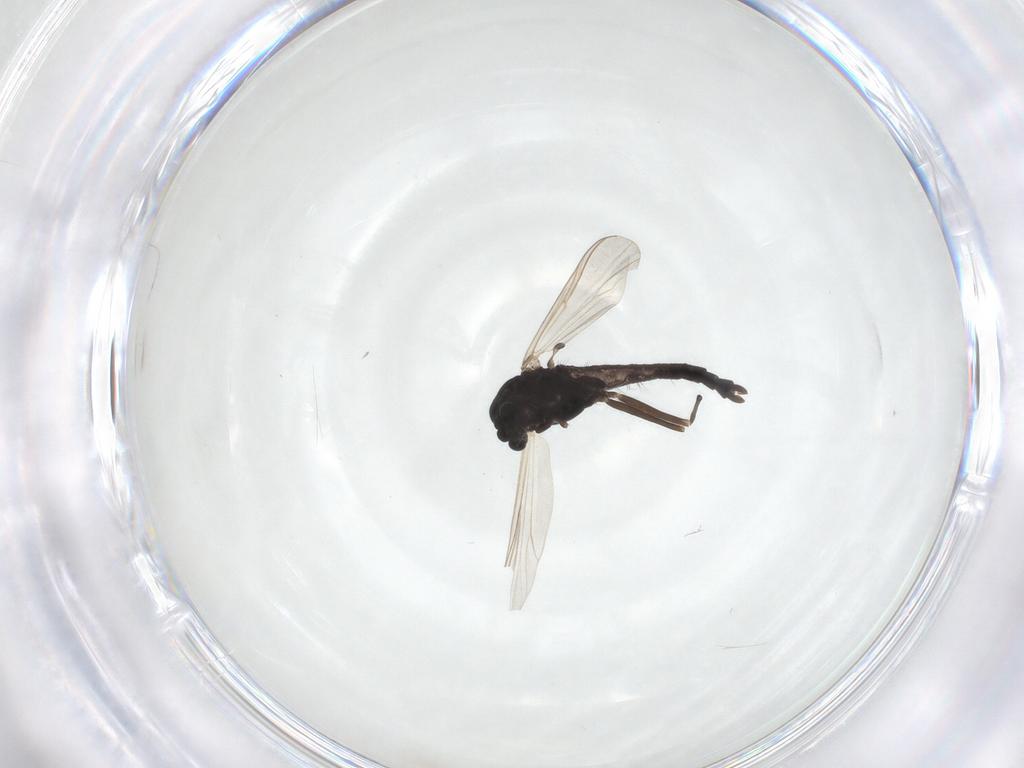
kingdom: Animalia
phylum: Arthropoda
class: Insecta
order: Diptera
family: Chironomidae
